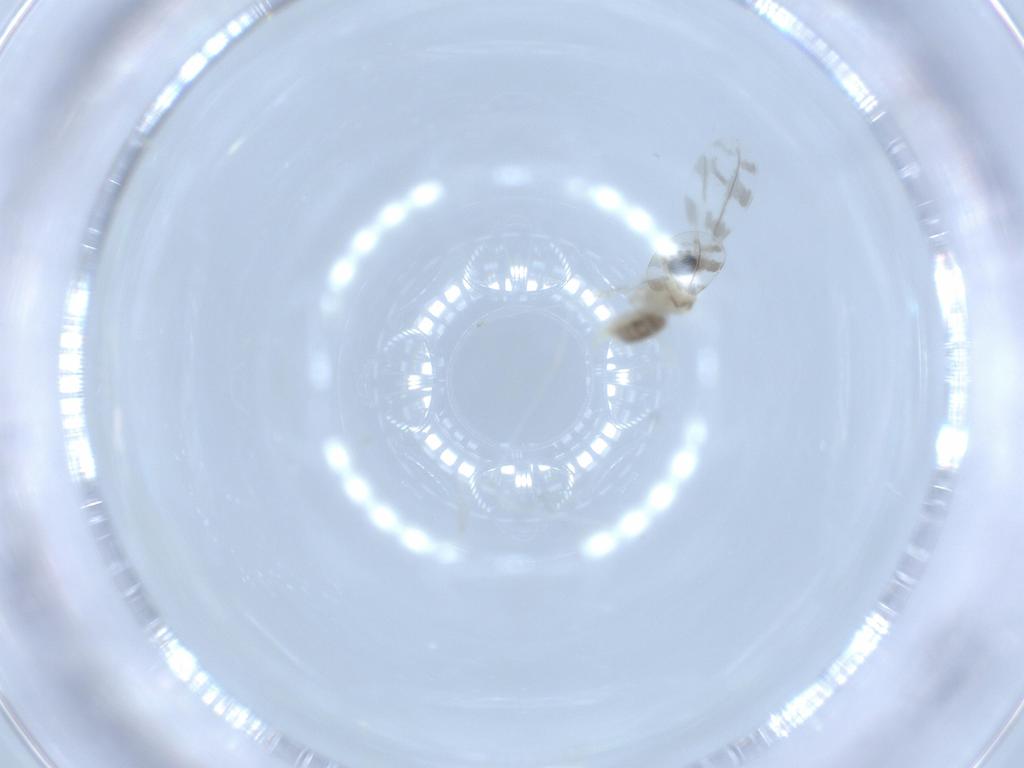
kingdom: Animalia
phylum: Arthropoda
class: Insecta
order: Diptera
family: Cecidomyiidae
